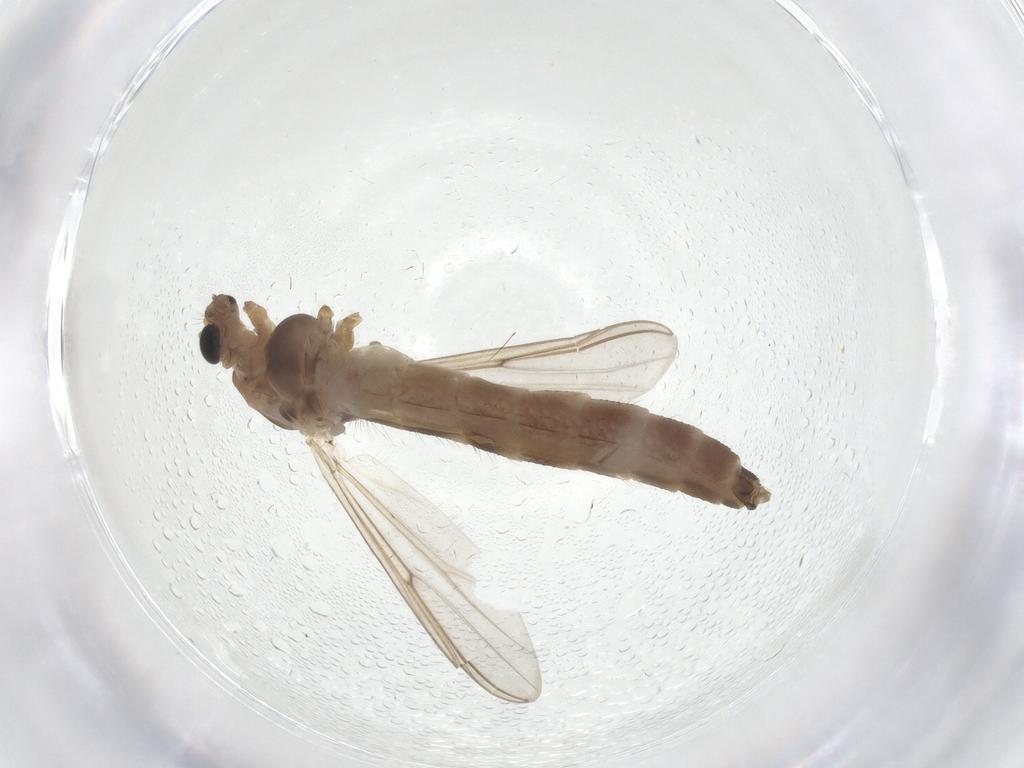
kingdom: Animalia
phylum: Arthropoda
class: Insecta
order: Diptera
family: Chironomidae
